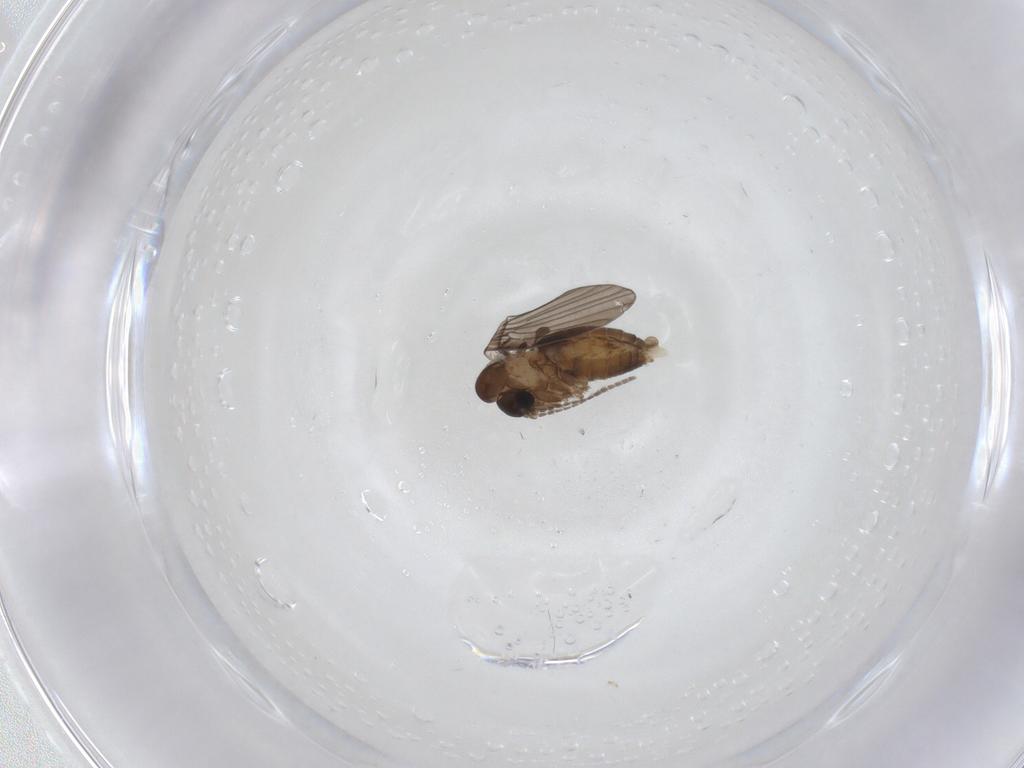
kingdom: Animalia
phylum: Arthropoda
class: Insecta
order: Diptera
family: Psychodidae
